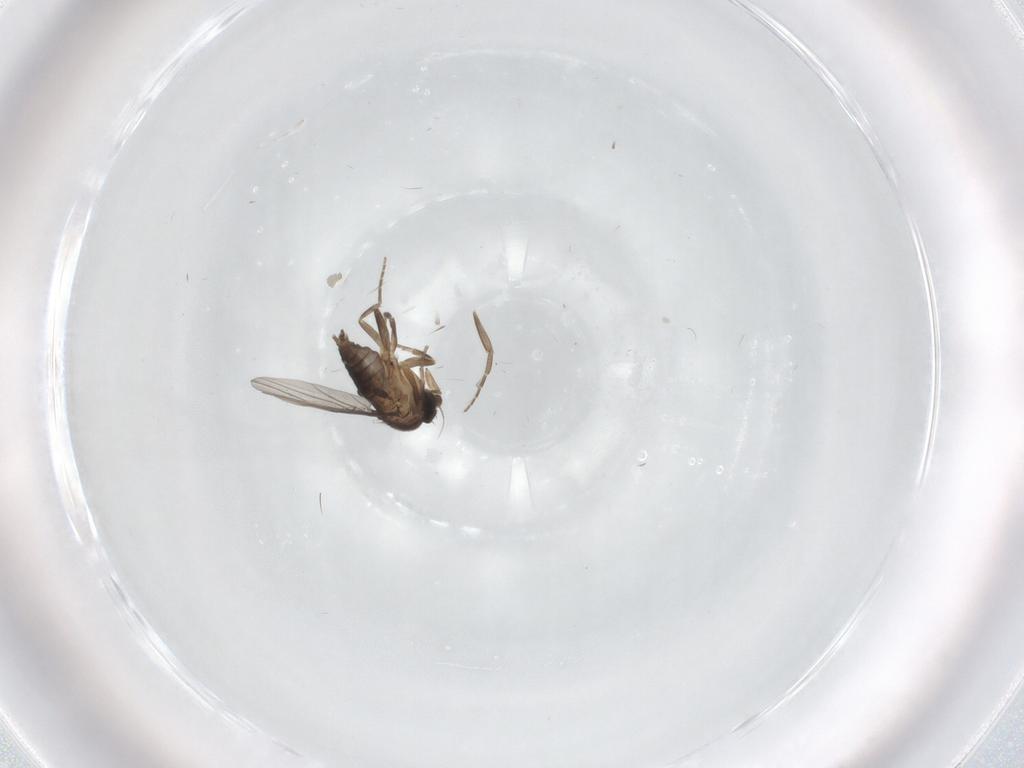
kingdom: Animalia
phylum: Arthropoda
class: Insecta
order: Diptera
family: Phoridae
